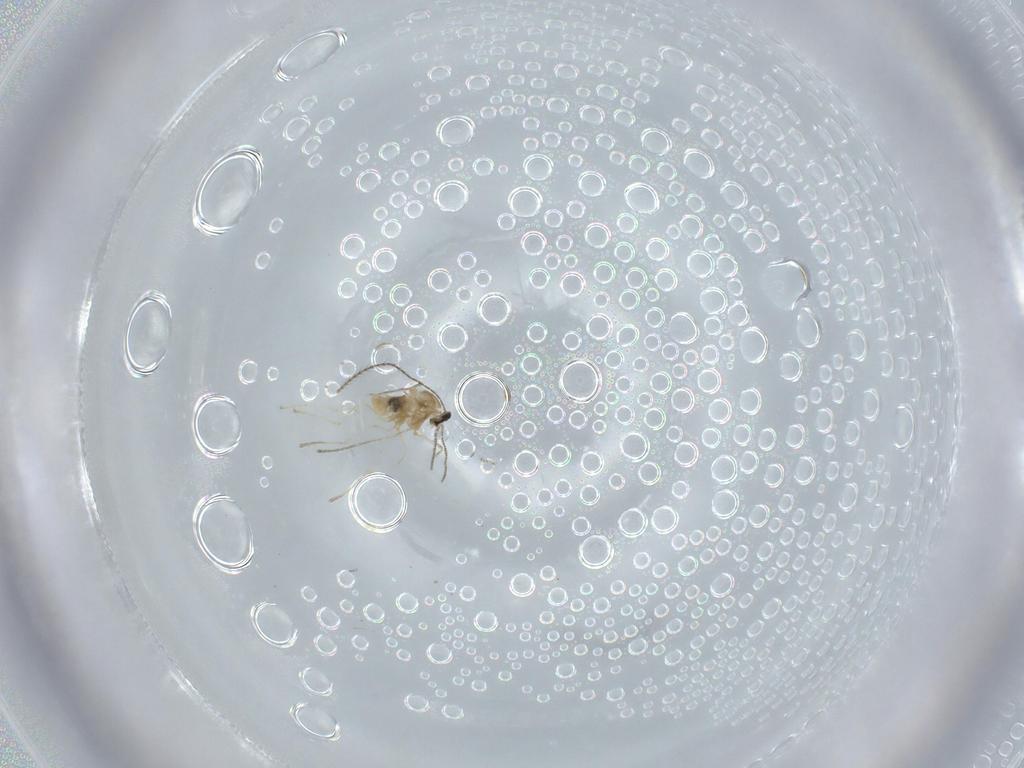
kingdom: Animalia
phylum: Arthropoda
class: Insecta
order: Diptera
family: Cecidomyiidae
